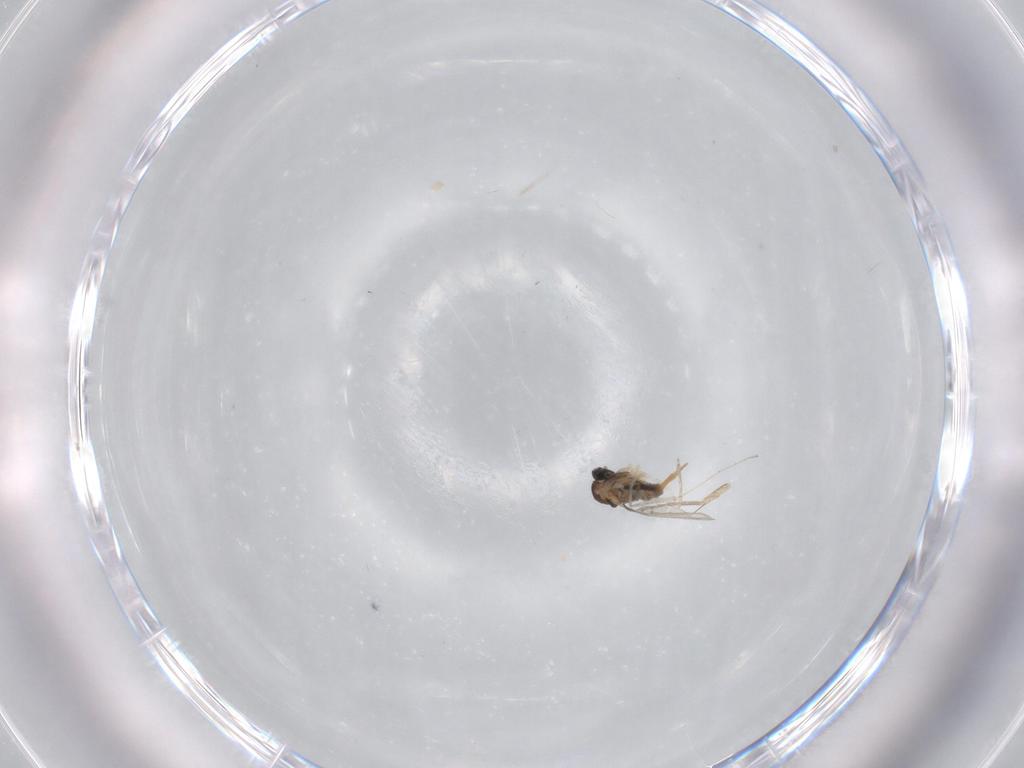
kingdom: Animalia
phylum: Arthropoda
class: Insecta
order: Diptera
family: Cecidomyiidae
